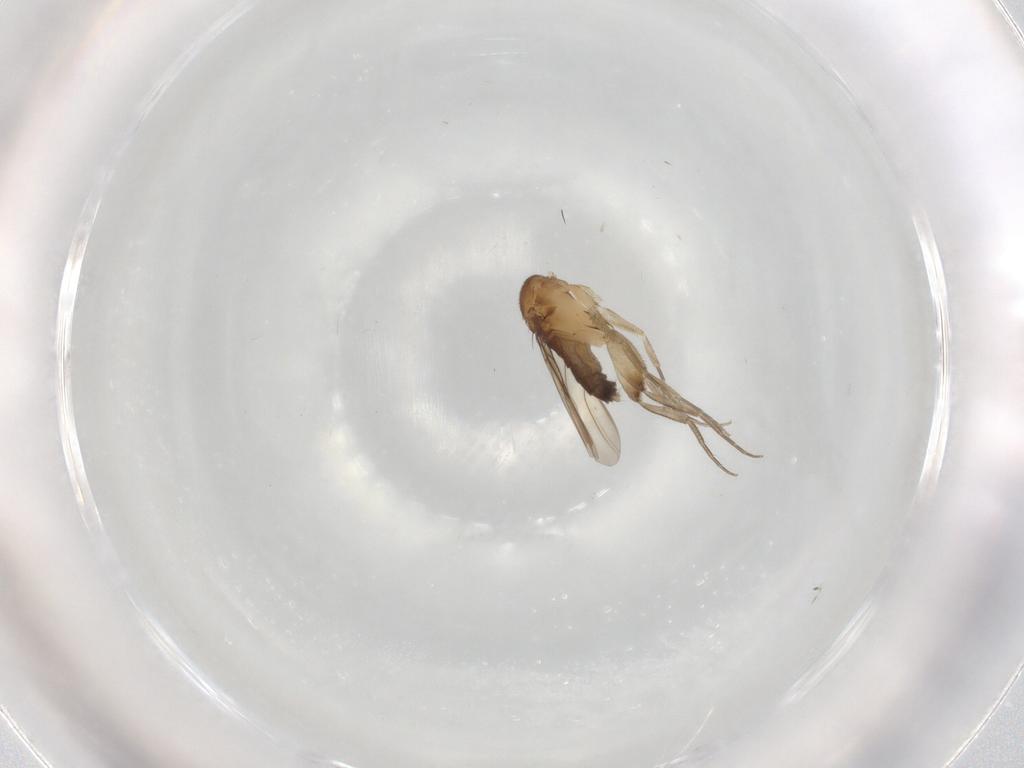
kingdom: Animalia
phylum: Arthropoda
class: Insecta
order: Diptera
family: Phoridae
